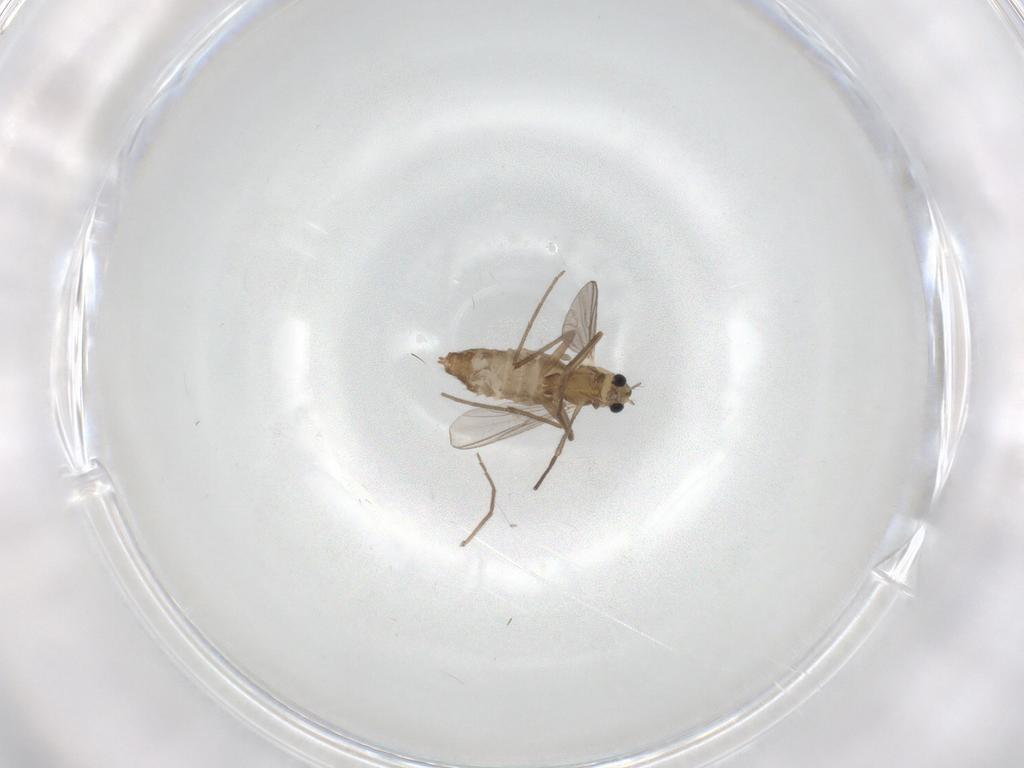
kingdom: Animalia
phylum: Arthropoda
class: Insecta
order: Diptera
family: Chironomidae
